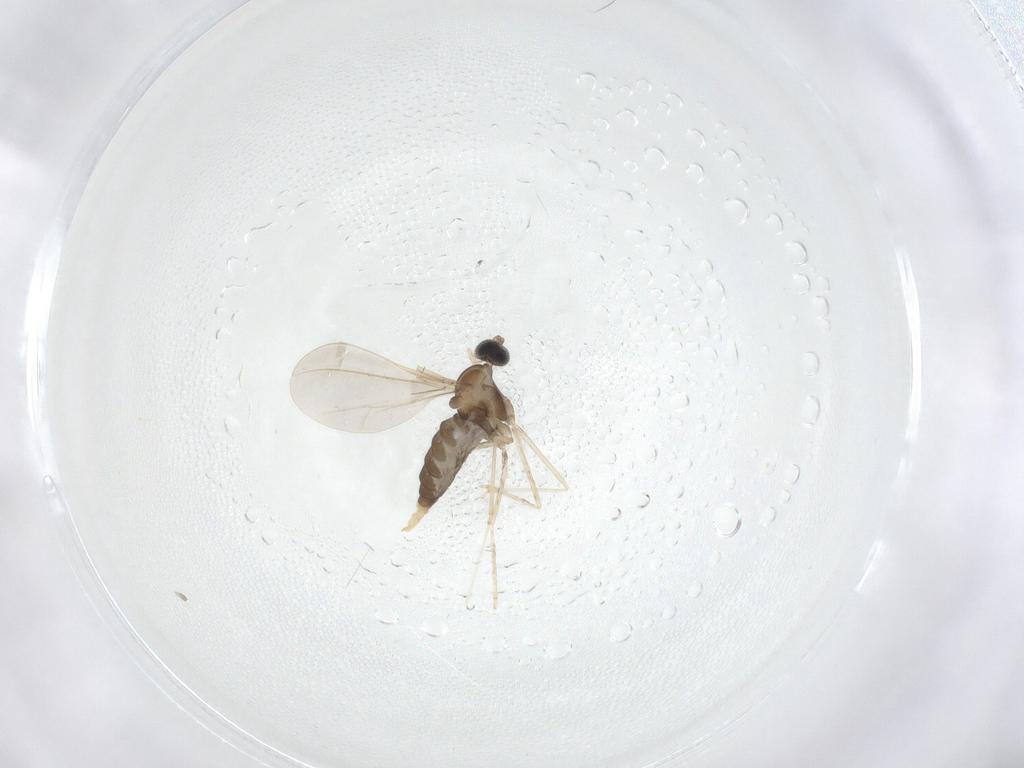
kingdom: Animalia
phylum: Arthropoda
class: Insecta
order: Diptera
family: Cecidomyiidae
